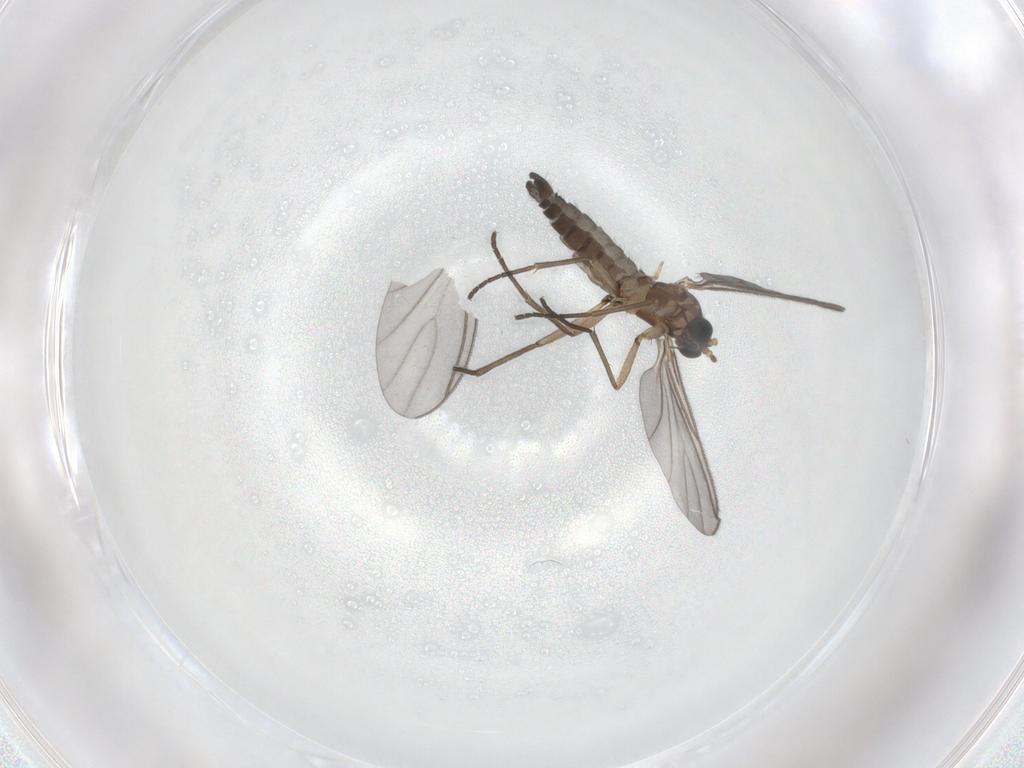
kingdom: Animalia
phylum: Arthropoda
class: Insecta
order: Diptera
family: Sciaridae
